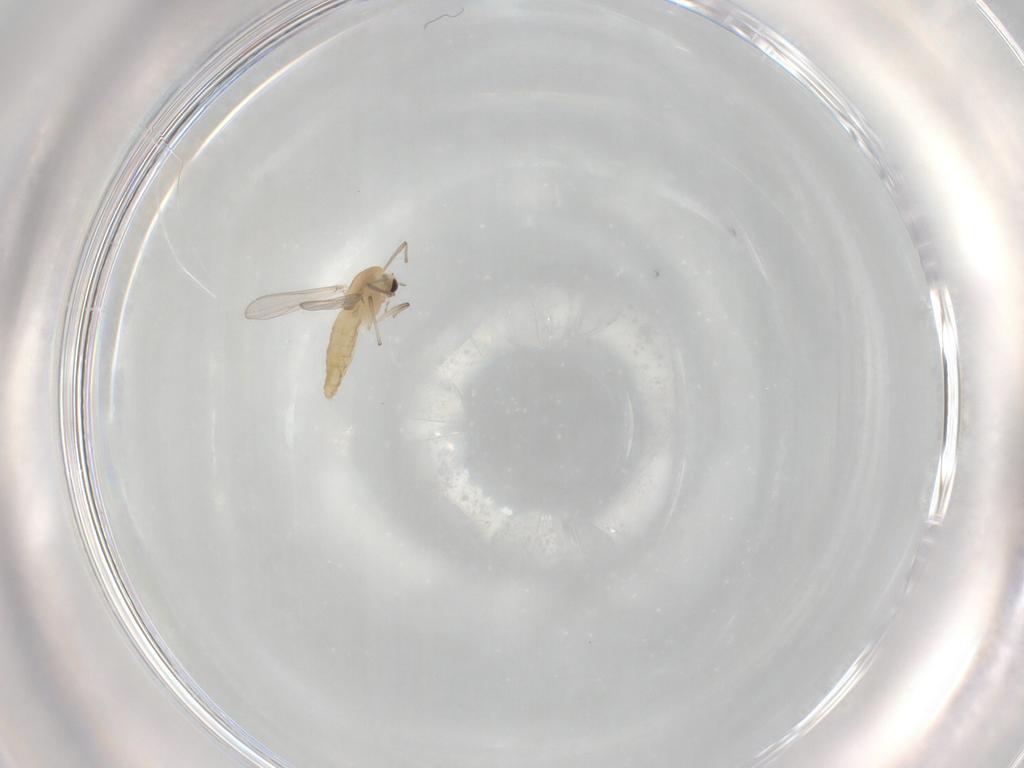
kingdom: Animalia
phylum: Arthropoda
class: Insecta
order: Diptera
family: Chironomidae
